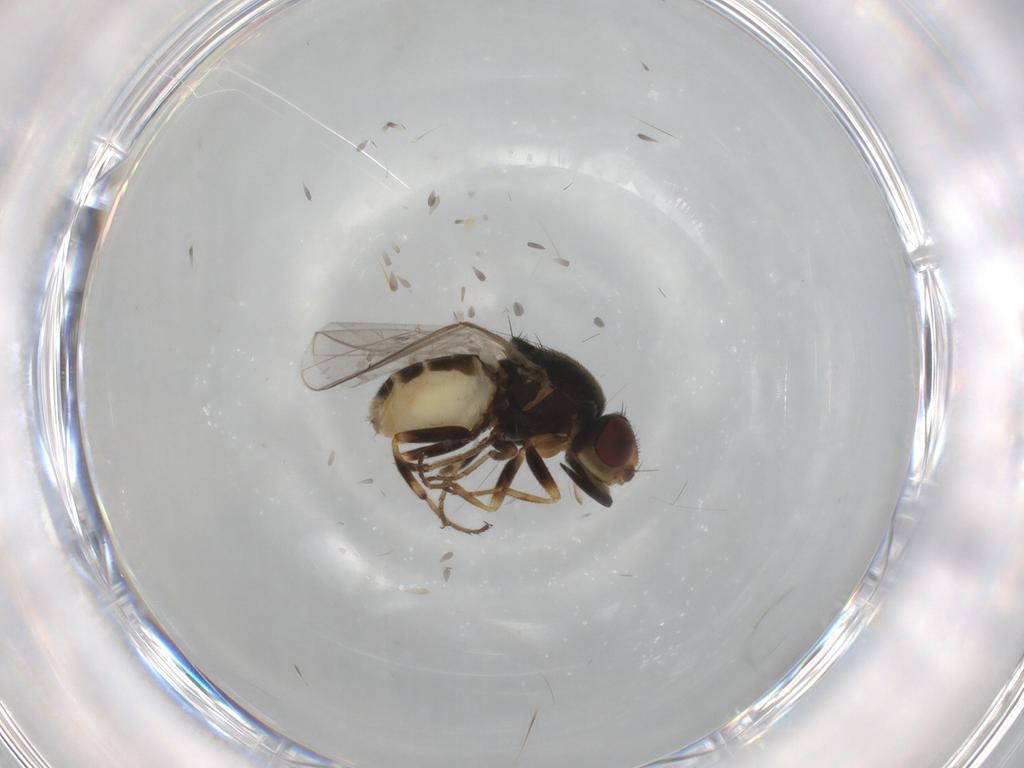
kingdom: Animalia
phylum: Arthropoda
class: Insecta
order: Diptera
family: Chloropidae
